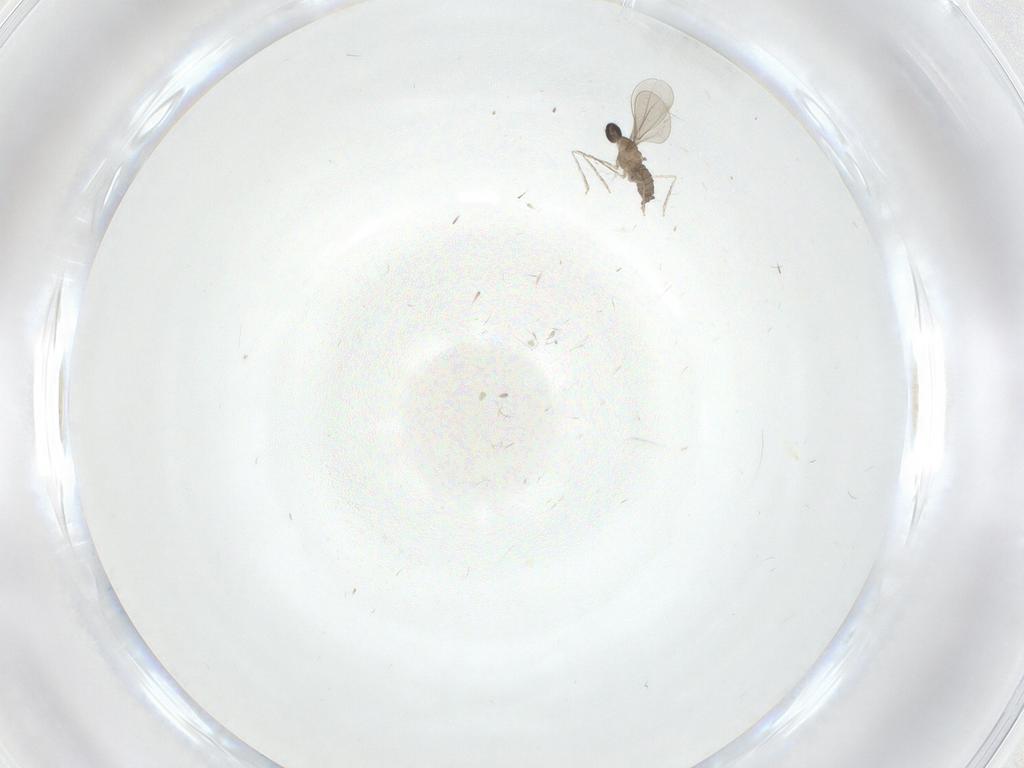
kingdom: Animalia
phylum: Arthropoda
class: Insecta
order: Diptera
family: Cecidomyiidae
